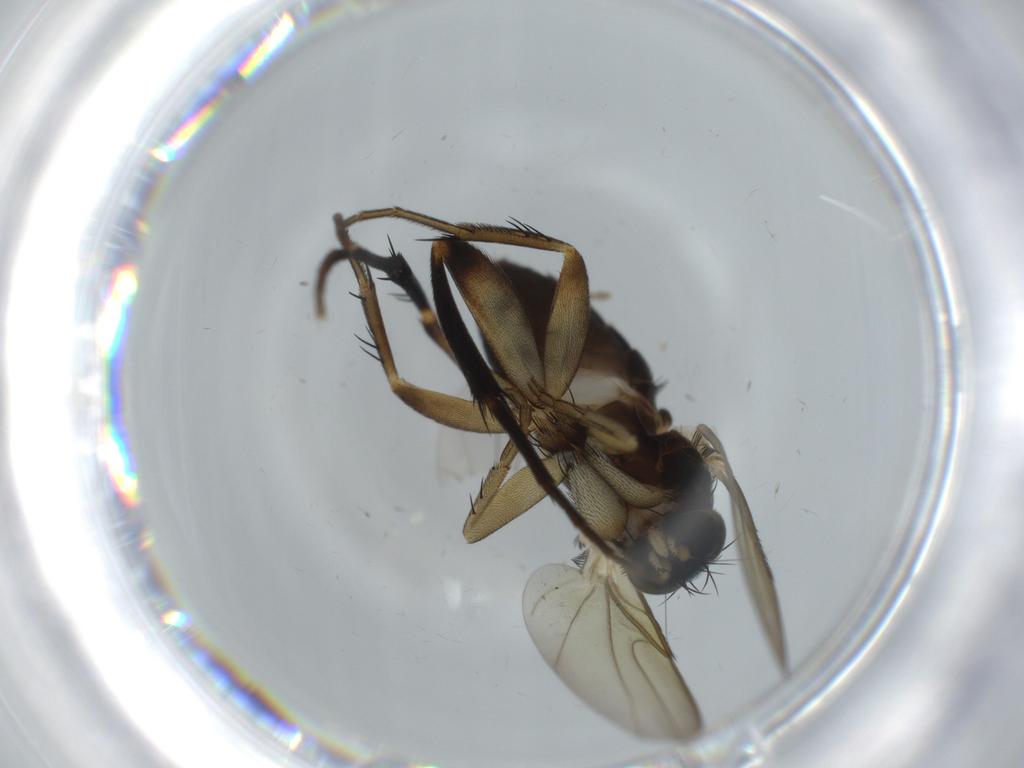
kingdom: Animalia
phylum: Arthropoda
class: Insecta
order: Diptera
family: Phoridae
